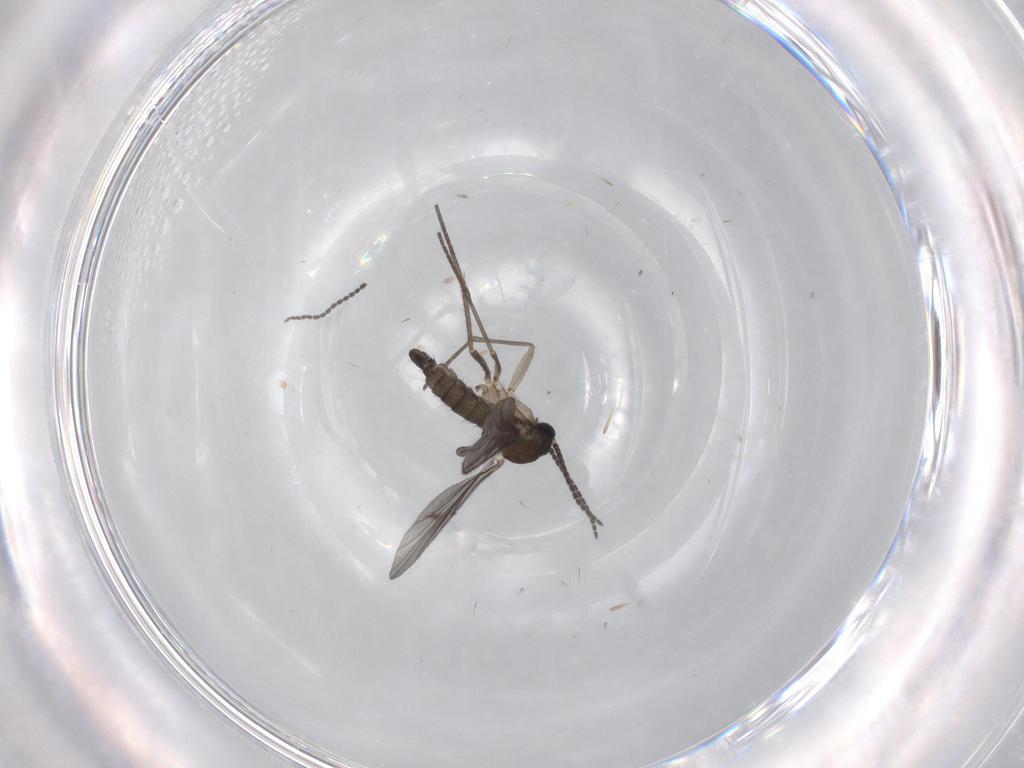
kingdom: Animalia
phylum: Arthropoda
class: Insecta
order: Diptera
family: Sciaridae
